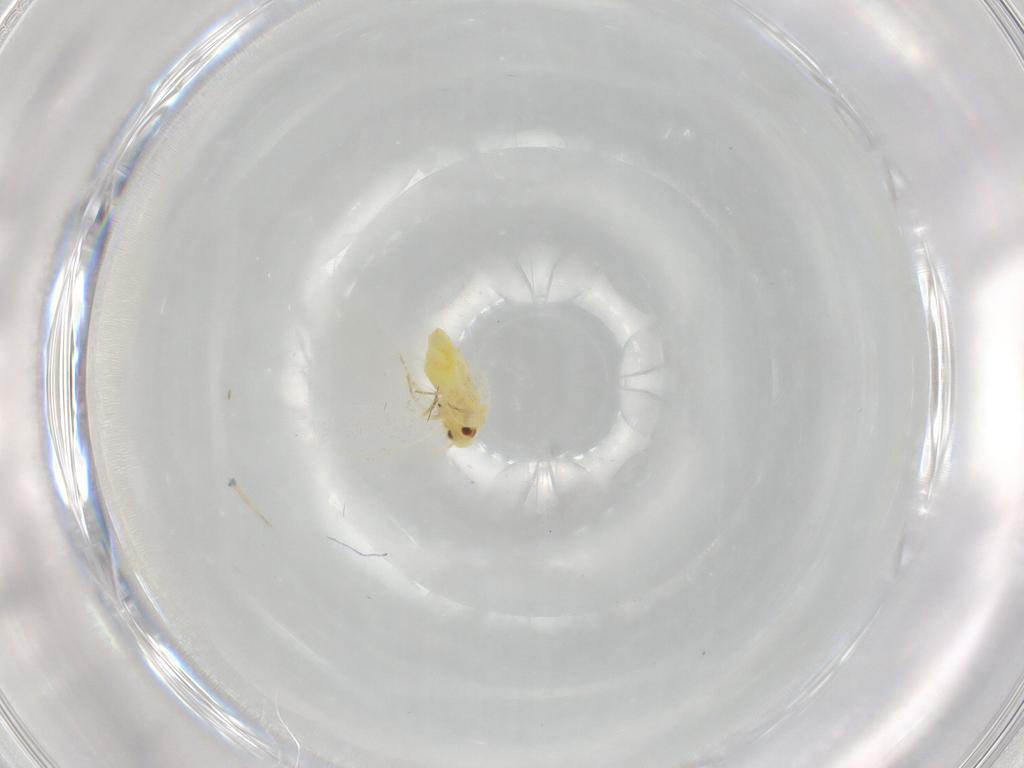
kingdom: Animalia
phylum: Arthropoda
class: Insecta
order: Hemiptera
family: Aleyrodidae
